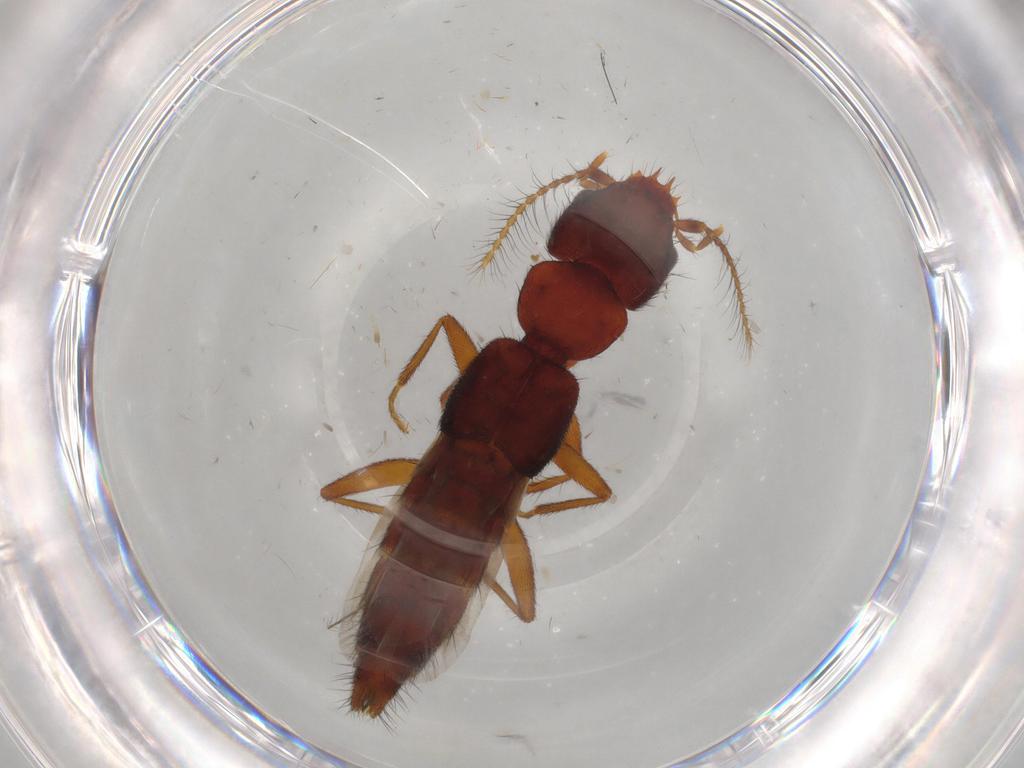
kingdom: Animalia
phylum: Arthropoda
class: Insecta
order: Coleoptera
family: Staphylinidae
